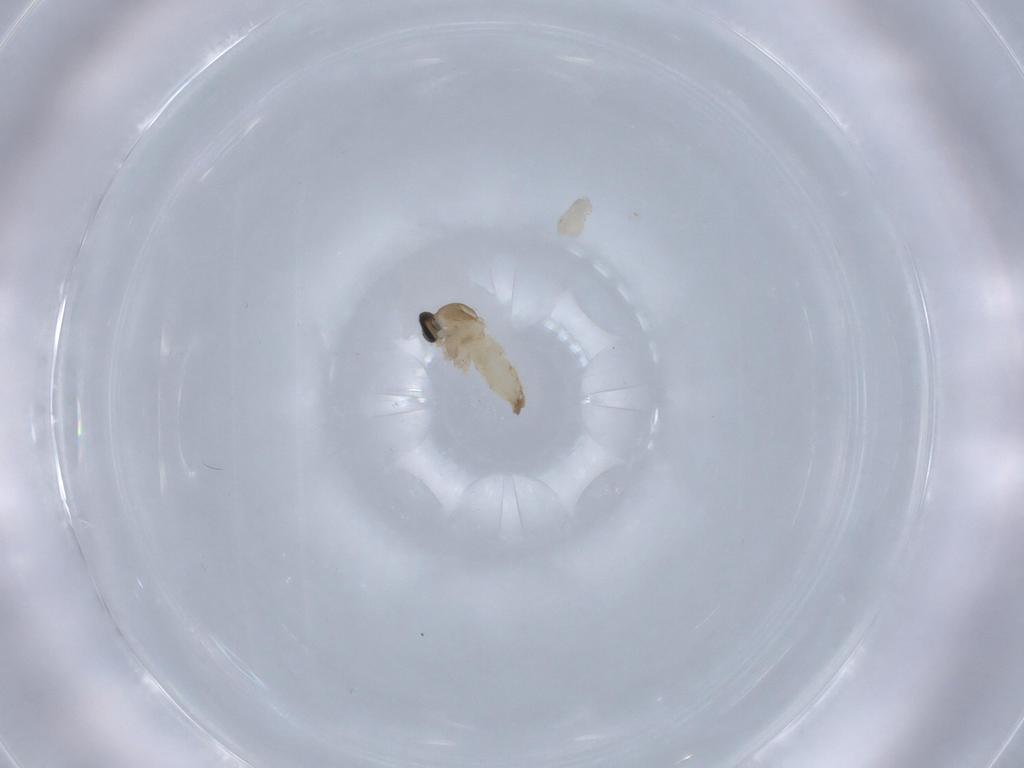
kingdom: Animalia
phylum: Arthropoda
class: Insecta
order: Diptera
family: Cecidomyiidae
